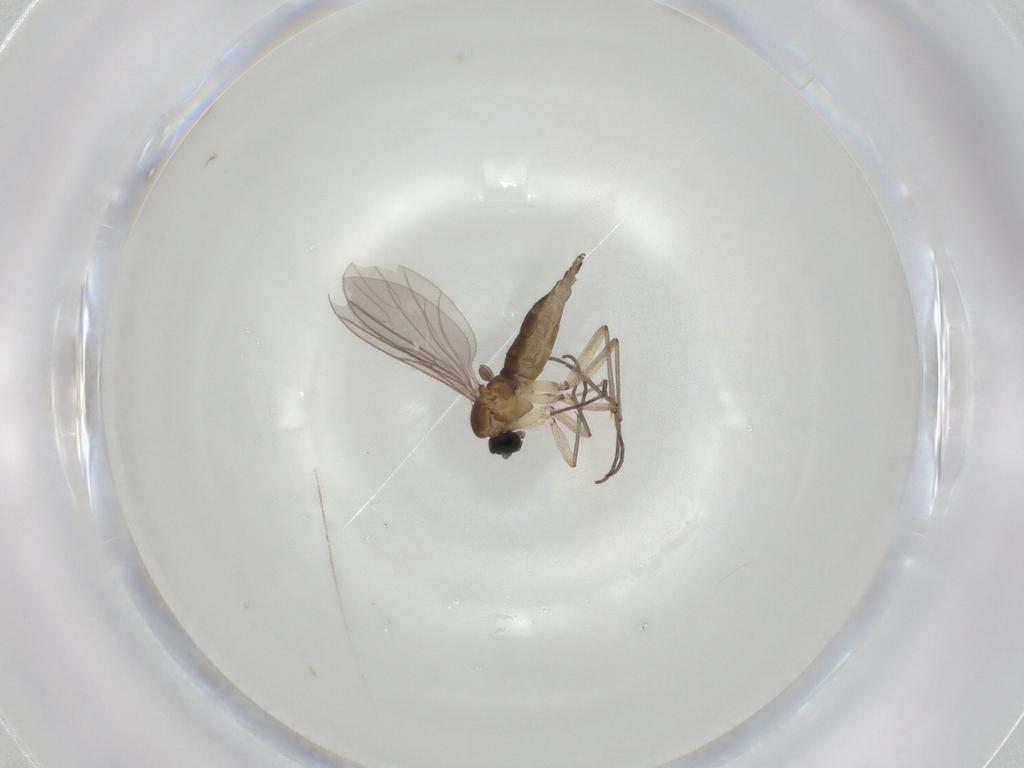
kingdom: Animalia
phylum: Arthropoda
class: Insecta
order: Diptera
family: Sciaridae
